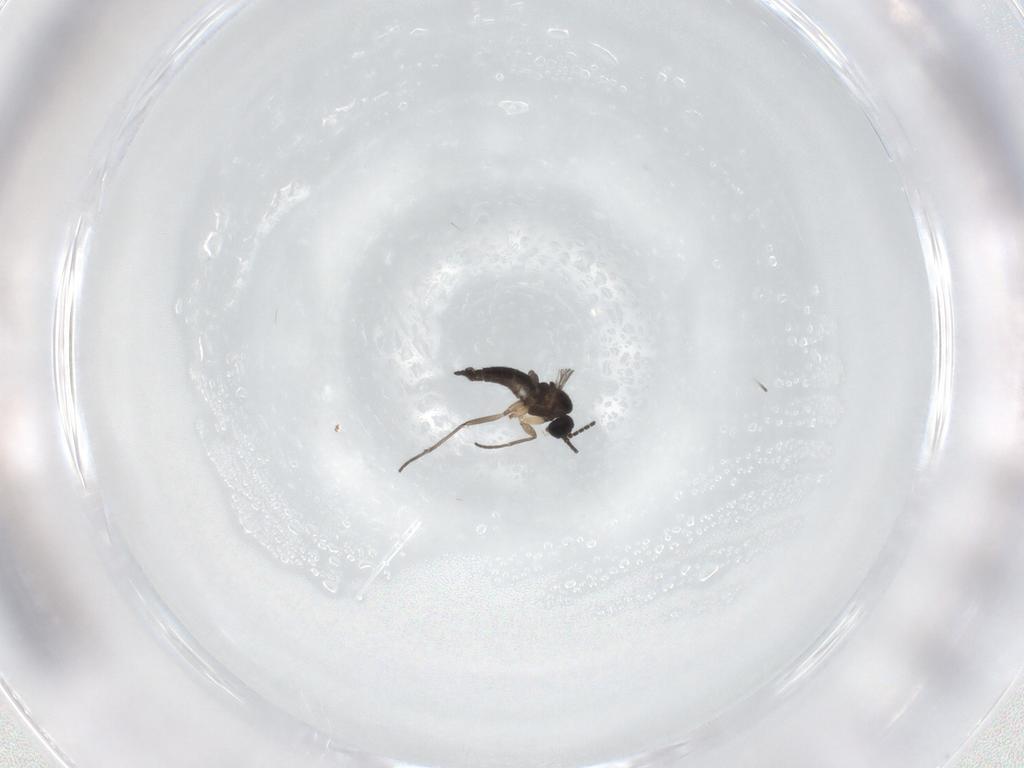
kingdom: Animalia
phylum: Arthropoda
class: Insecta
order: Diptera
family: Sciaridae
